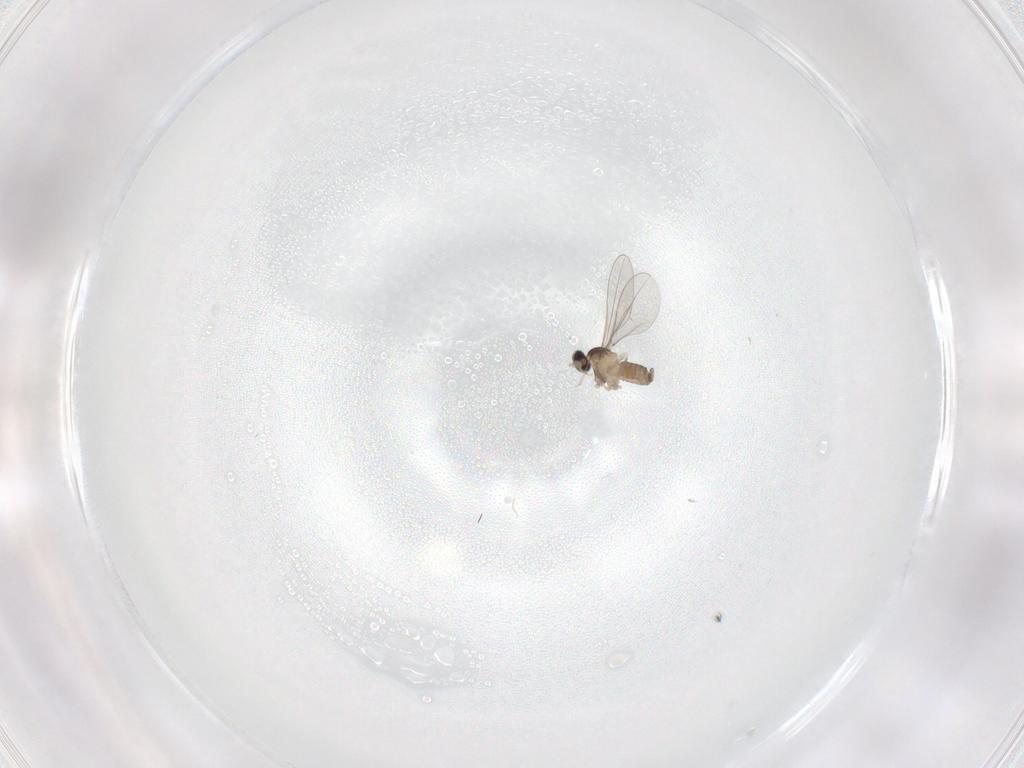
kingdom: Animalia
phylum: Arthropoda
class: Insecta
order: Diptera
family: Cecidomyiidae
